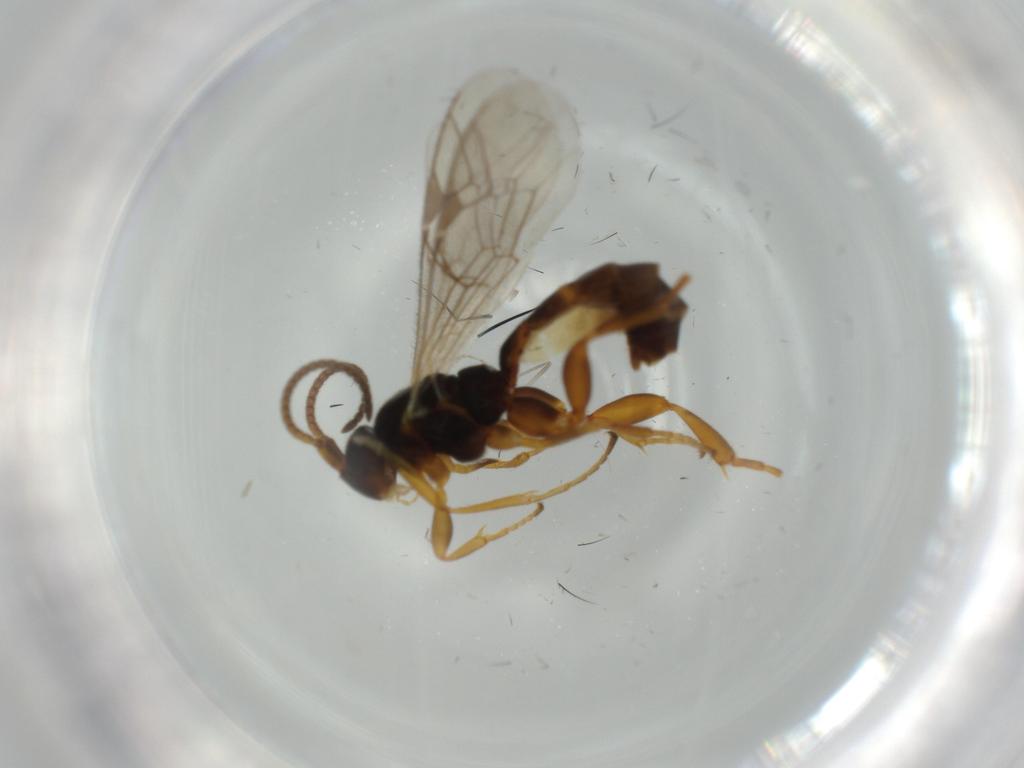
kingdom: Animalia
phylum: Arthropoda
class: Insecta
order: Hymenoptera
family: Ichneumonidae
